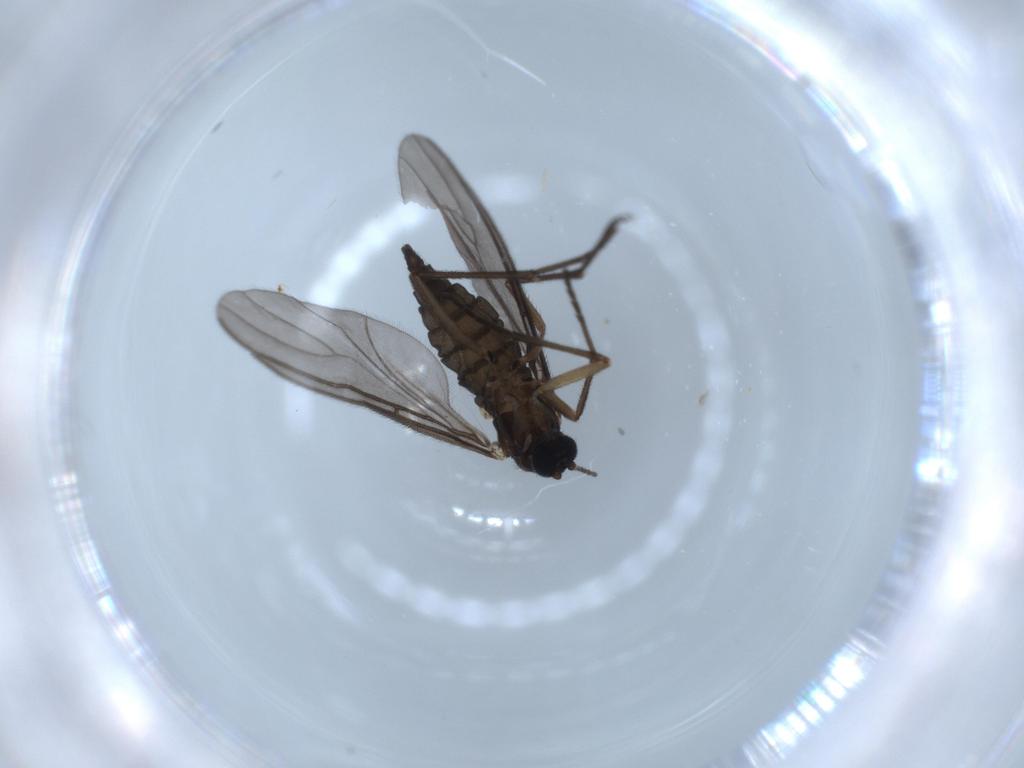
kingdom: Animalia
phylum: Arthropoda
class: Insecta
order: Diptera
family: Sciaridae
